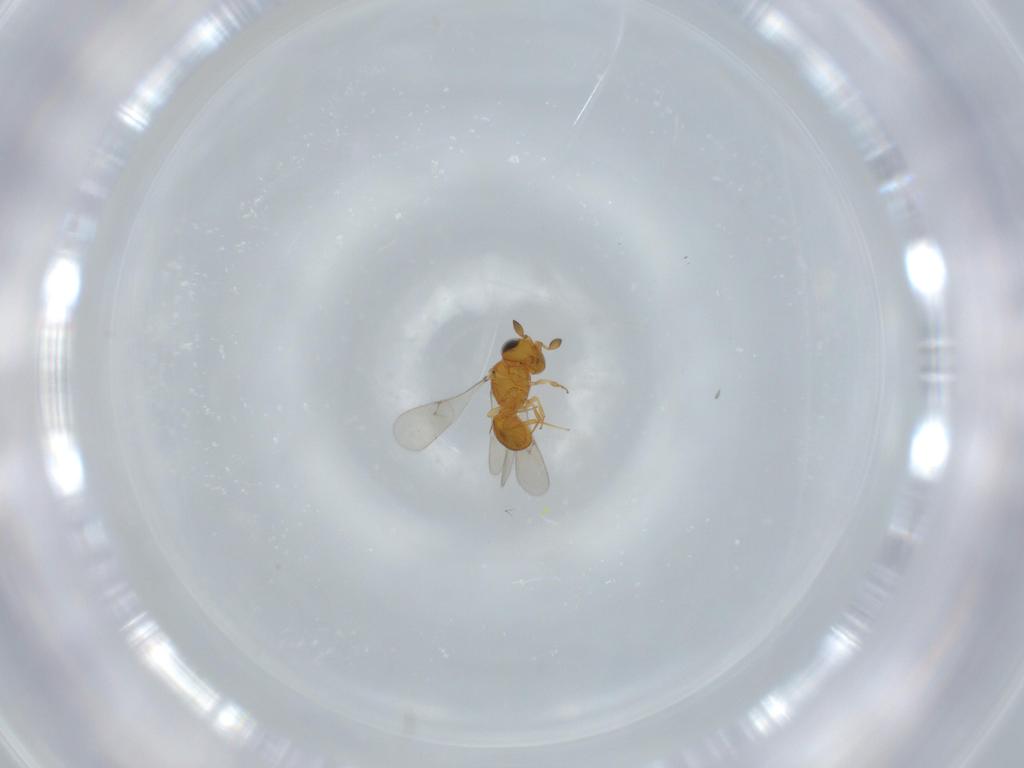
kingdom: Animalia
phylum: Arthropoda
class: Insecta
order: Hymenoptera
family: Scelionidae
